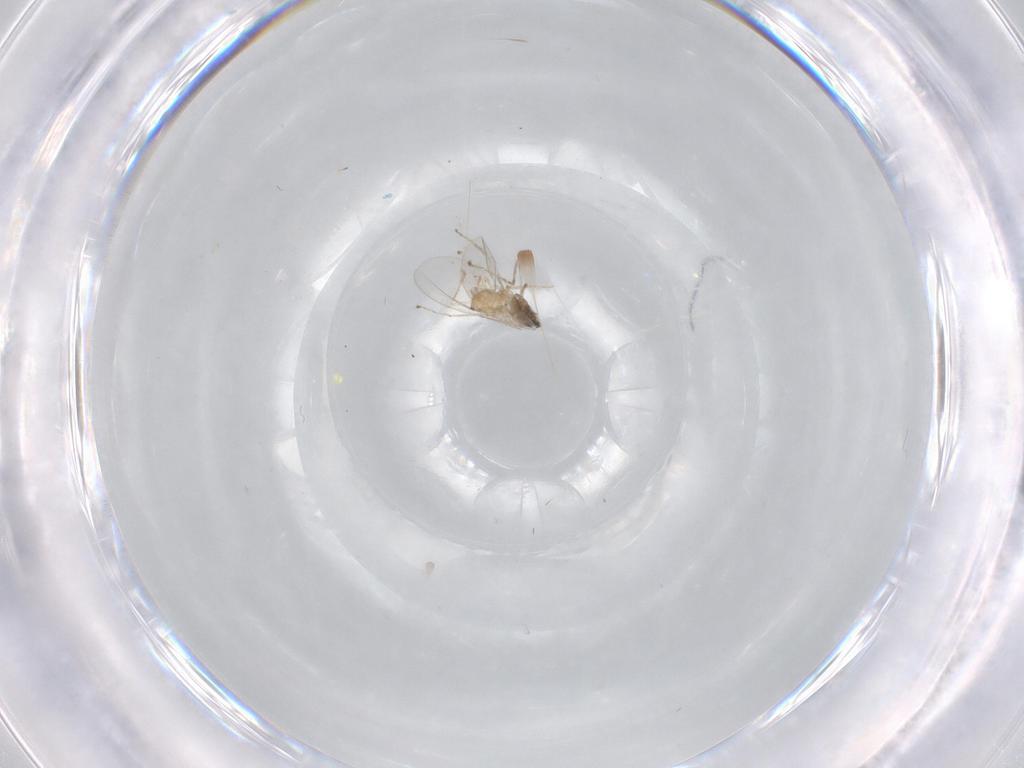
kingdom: Animalia
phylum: Arthropoda
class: Insecta
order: Diptera
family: Cecidomyiidae
